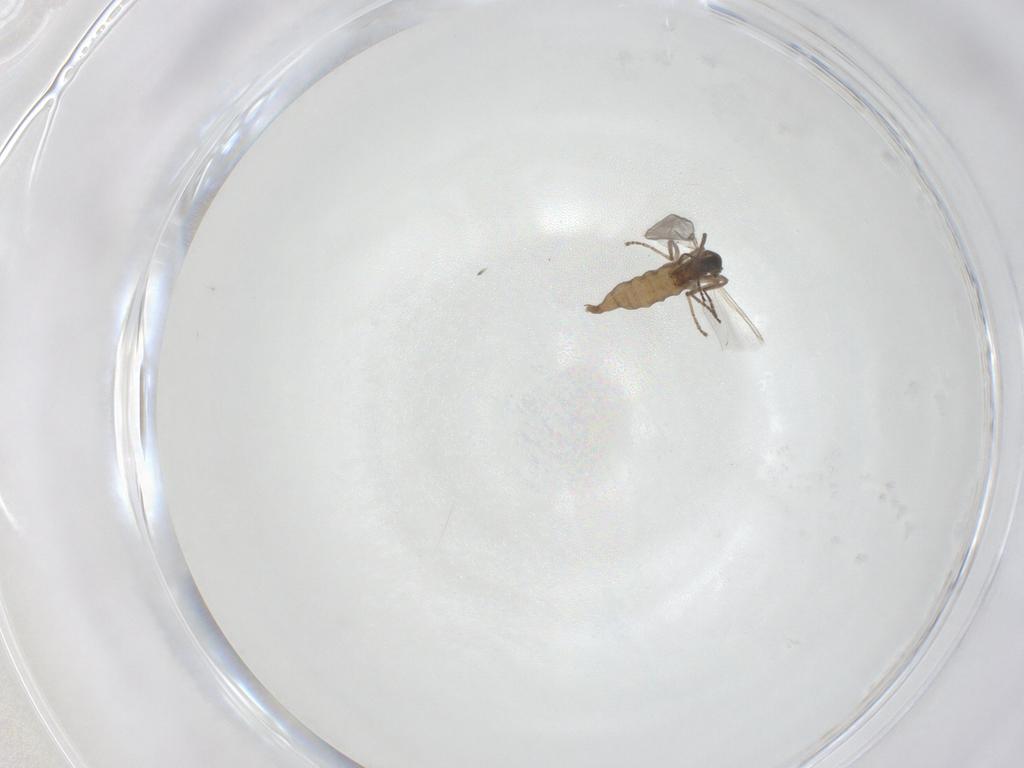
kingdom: Animalia
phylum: Arthropoda
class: Insecta
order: Diptera
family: Cecidomyiidae
